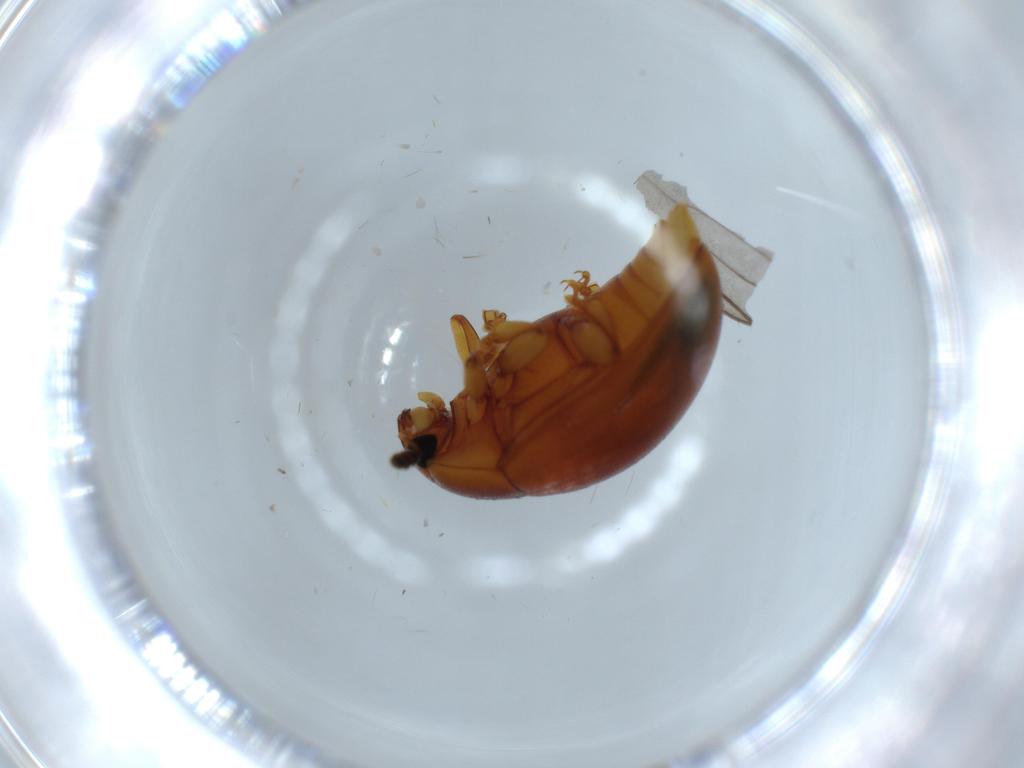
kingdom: Animalia
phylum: Arthropoda
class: Insecta
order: Coleoptera
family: Erotylidae
